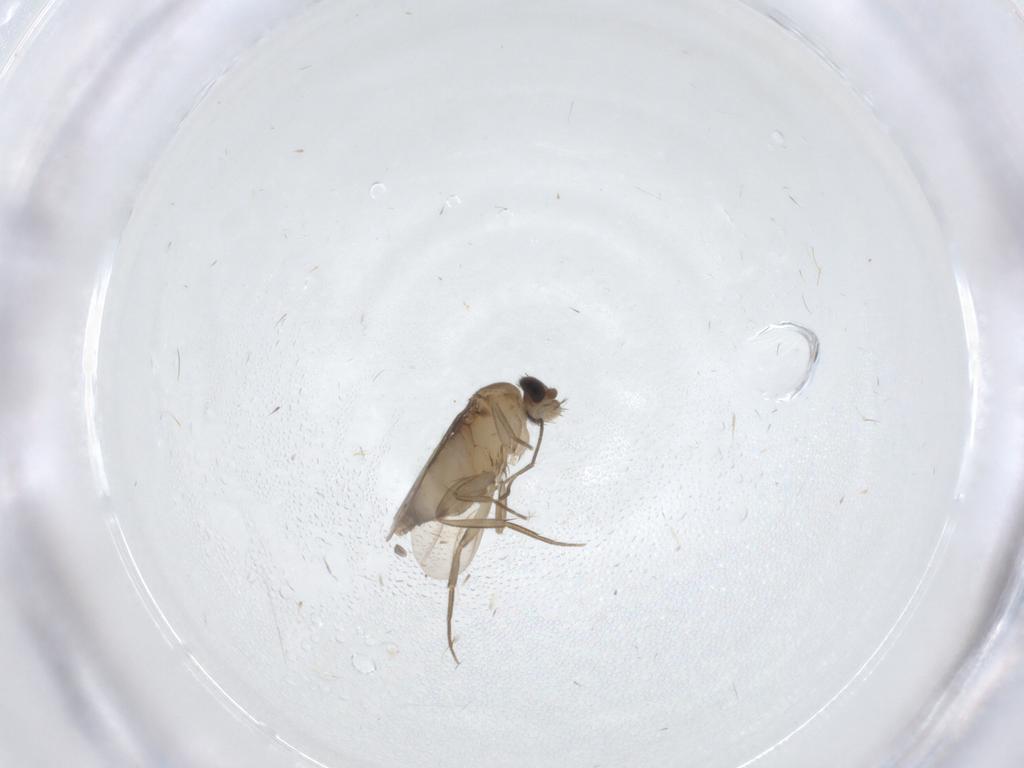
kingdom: Animalia
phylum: Arthropoda
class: Insecta
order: Diptera
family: Phoridae
